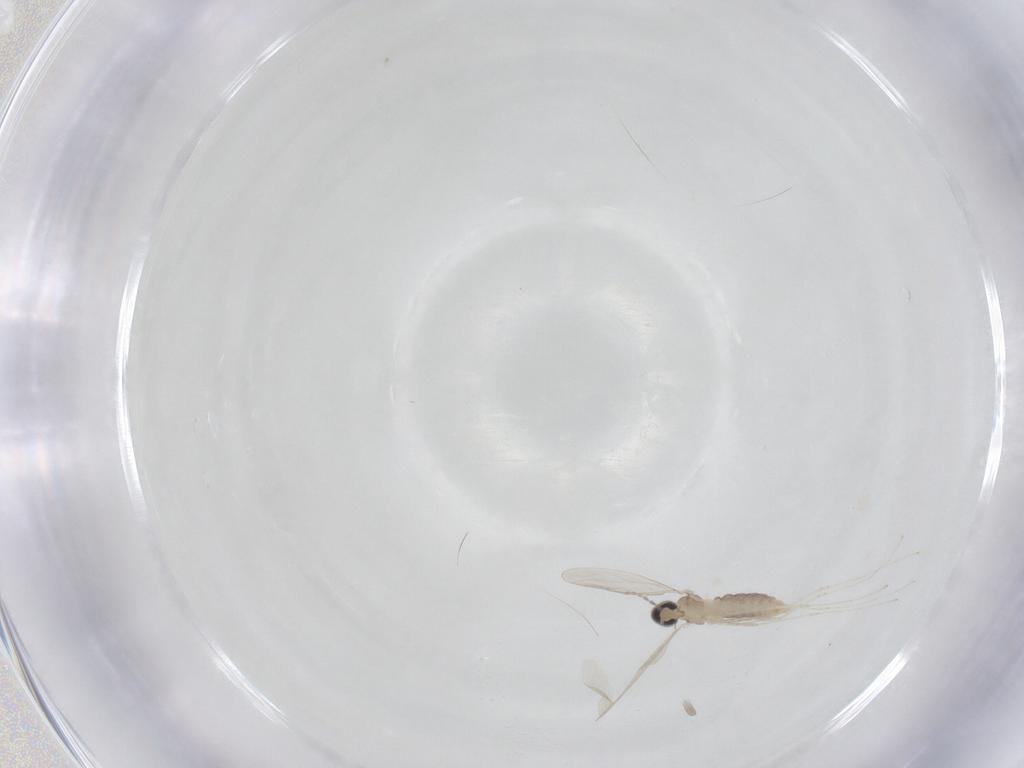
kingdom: Animalia
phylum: Arthropoda
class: Insecta
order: Diptera
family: Cecidomyiidae
